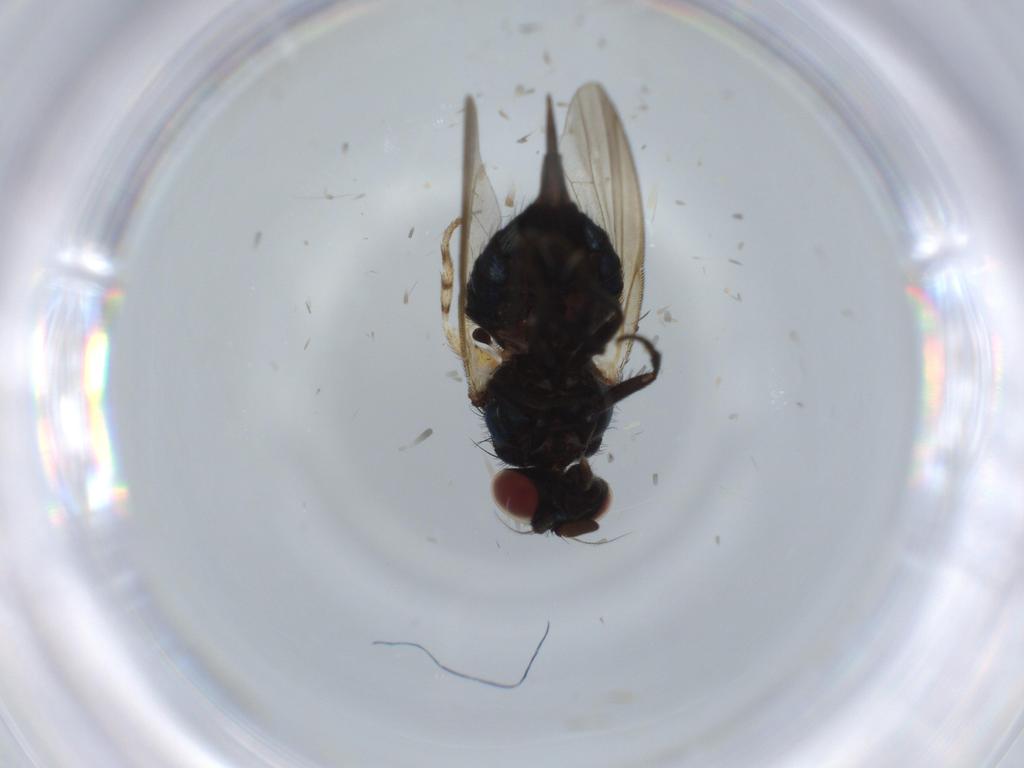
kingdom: Animalia
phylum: Arthropoda
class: Insecta
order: Diptera
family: Lonchaeidae
